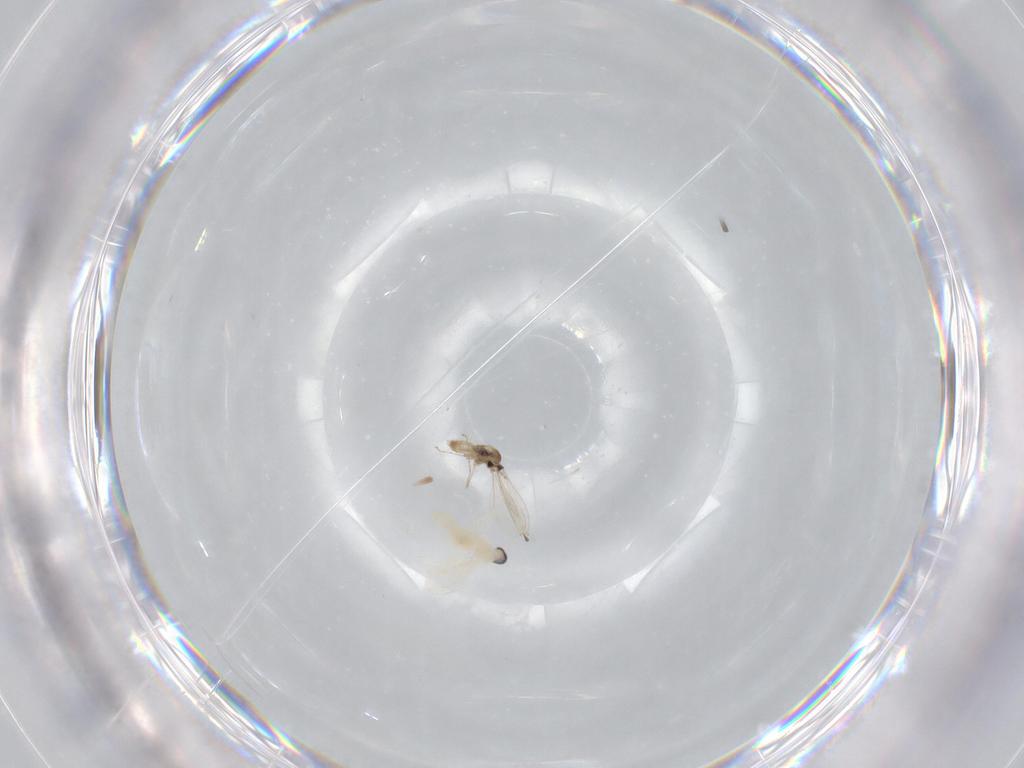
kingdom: Animalia
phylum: Arthropoda
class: Insecta
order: Diptera
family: Cecidomyiidae
